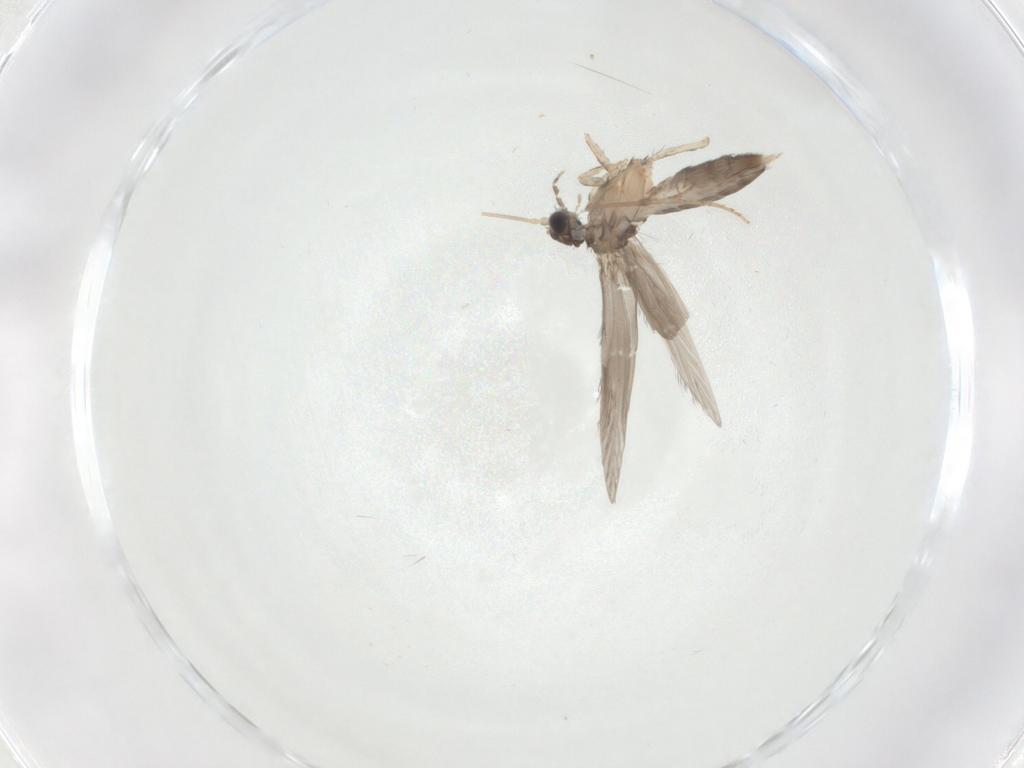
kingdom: Animalia
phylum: Arthropoda
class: Insecta
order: Trichoptera
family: Hydroptilidae
